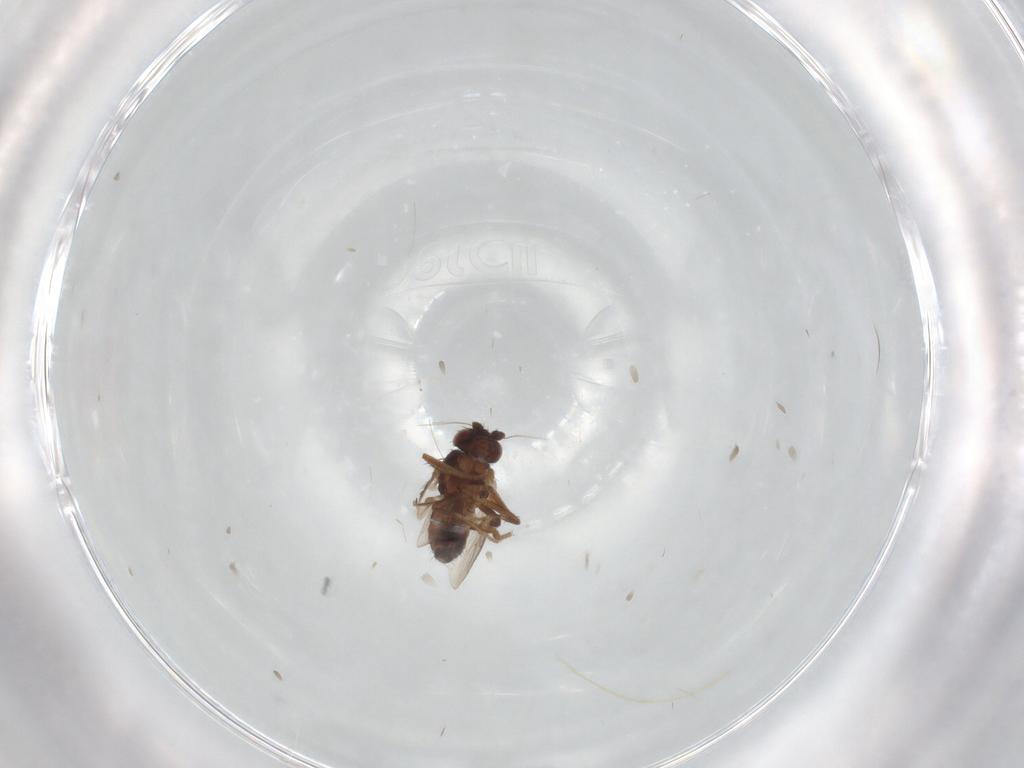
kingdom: Animalia
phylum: Arthropoda
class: Insecta
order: Diptera
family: Sphaeroceridae
